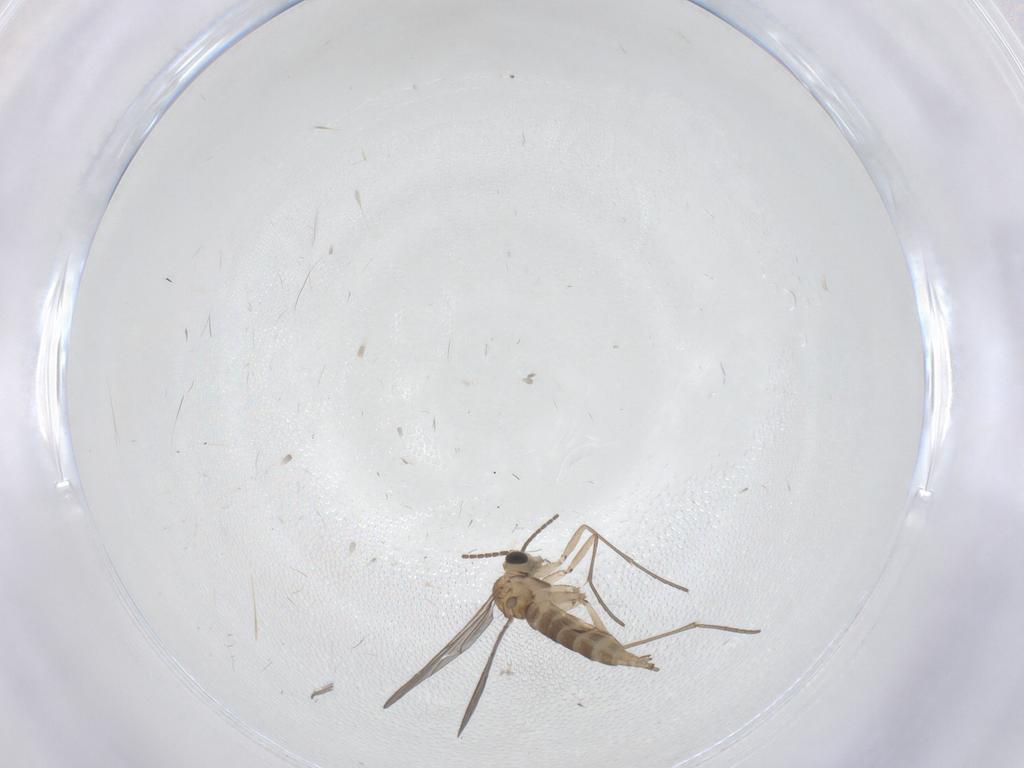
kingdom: Animalia
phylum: Arthropoda
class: Insecta
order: Diptera
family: Sciaridae
